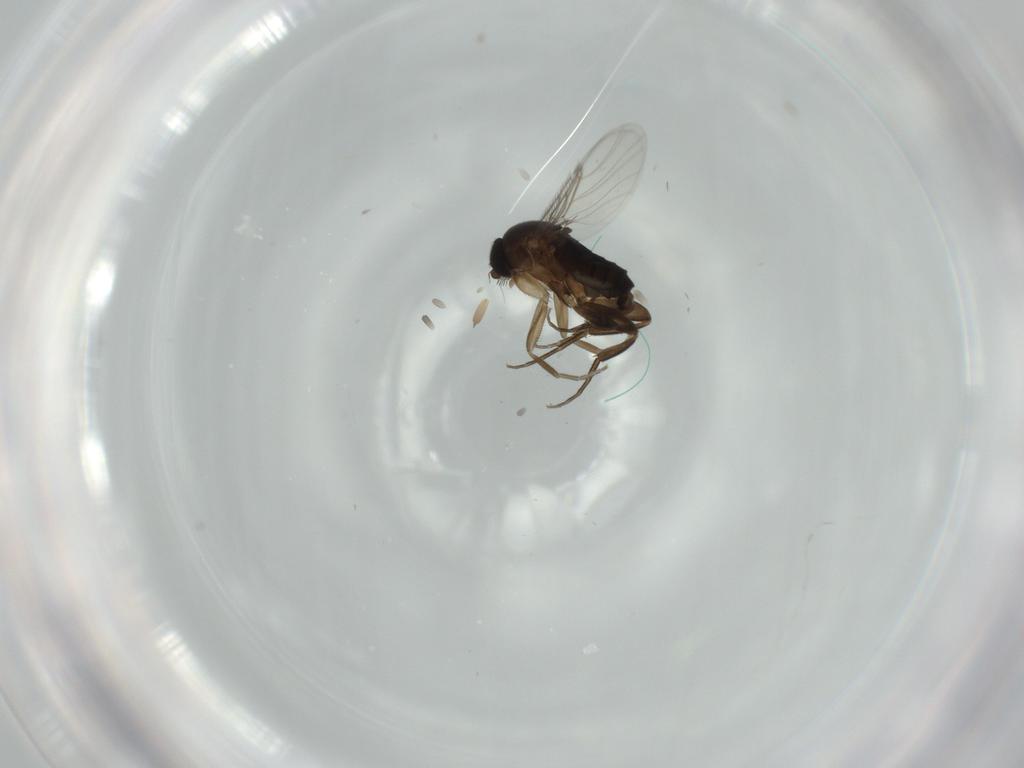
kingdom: Animalia
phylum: Arthropoda
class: Insecta
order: Diptera
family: Phoridae
